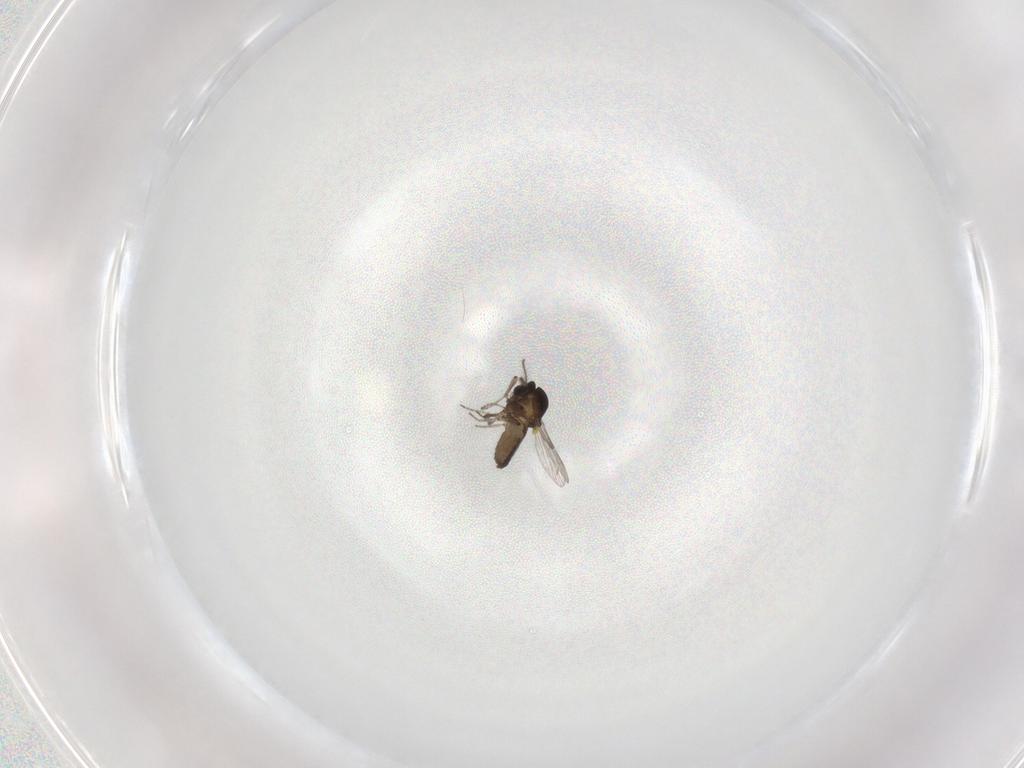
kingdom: Animalia
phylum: Arthropoda
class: Insecta
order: Diptera
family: Ceratopogonidae
